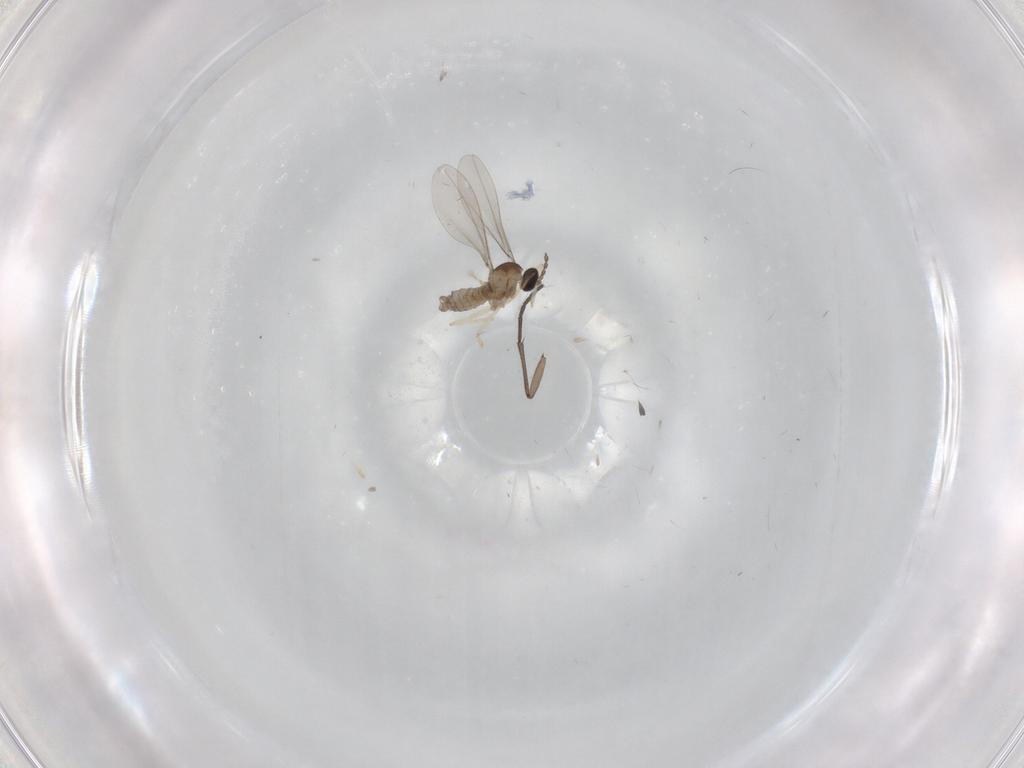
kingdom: Animalia
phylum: Arthropoda
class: Insecta
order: Diptera
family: Sciaridae
